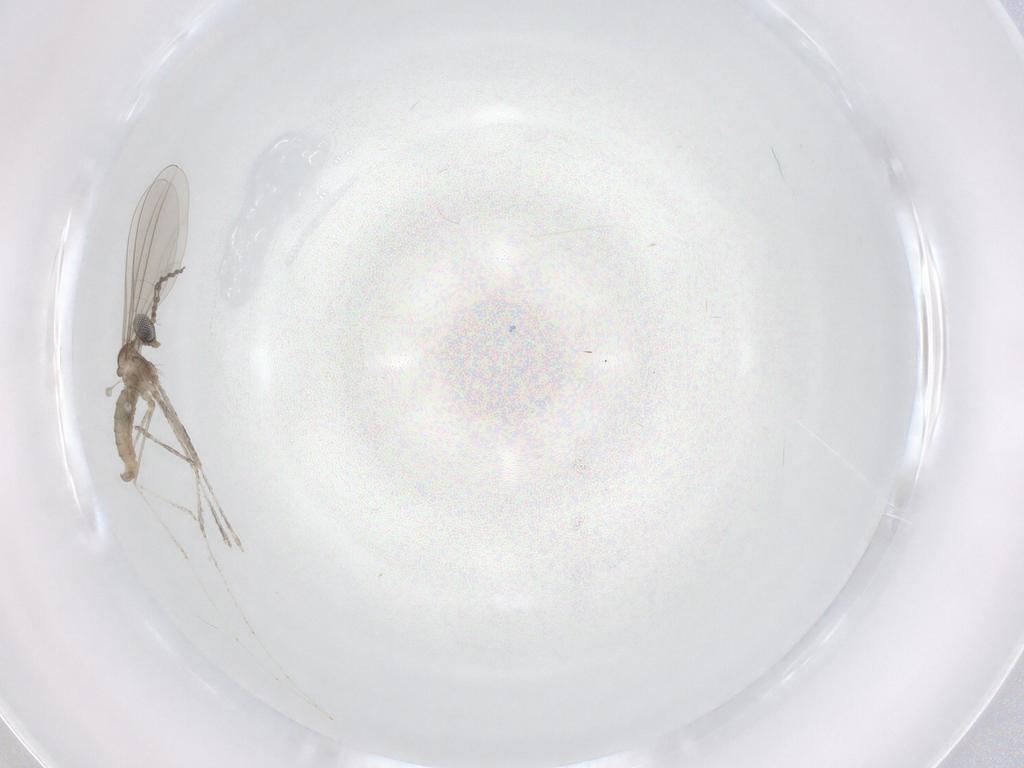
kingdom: Animalia
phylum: Arthropoda
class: Insecta
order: Diptera
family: Cecidomyiidae
